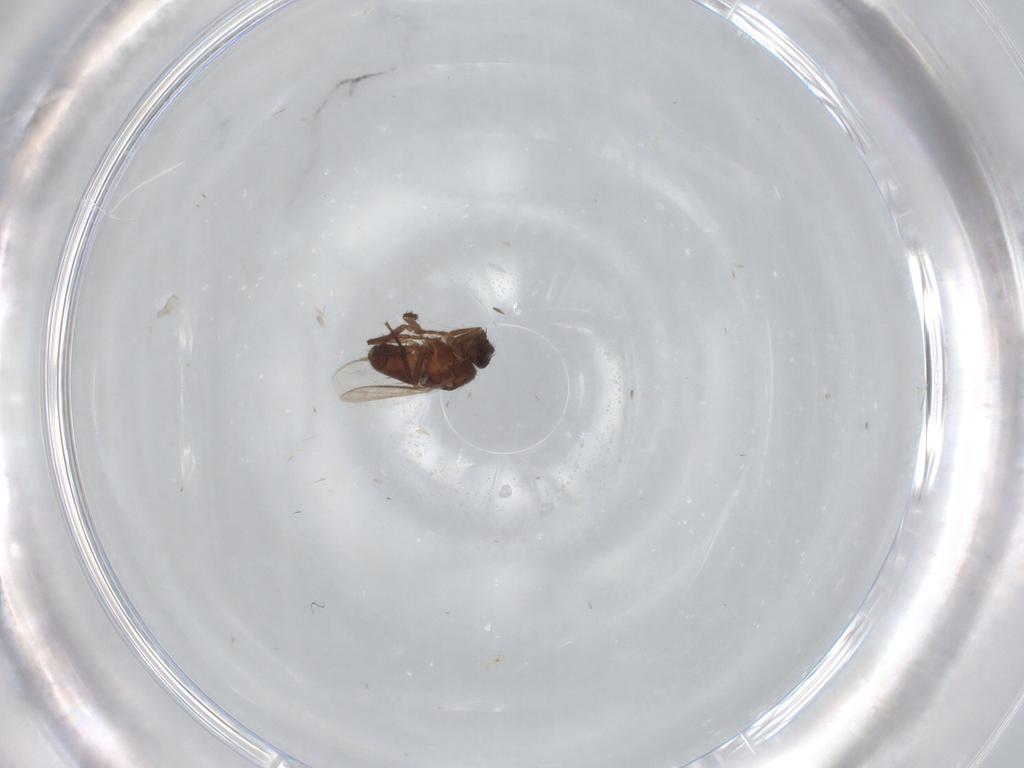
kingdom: Animalia
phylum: Arthropoda
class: Insecta
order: Diptera
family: Sphaeroceridae
